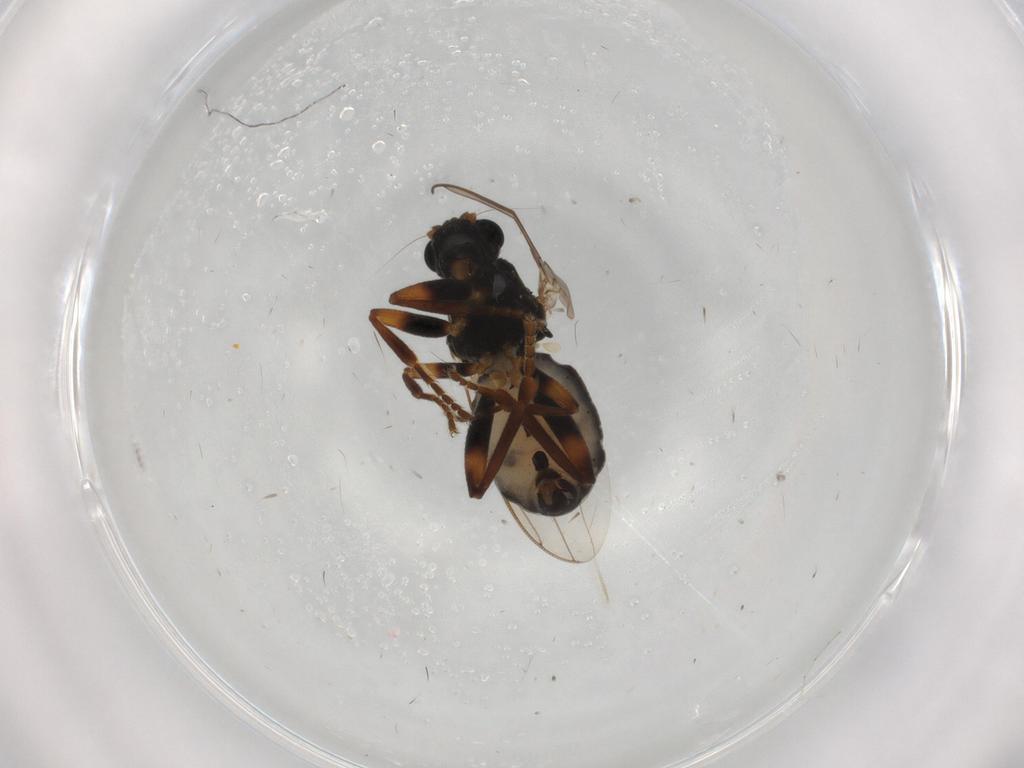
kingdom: Animalia
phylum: Arthropoda
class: Insecta
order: Diptera
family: Sphaeroceridae
